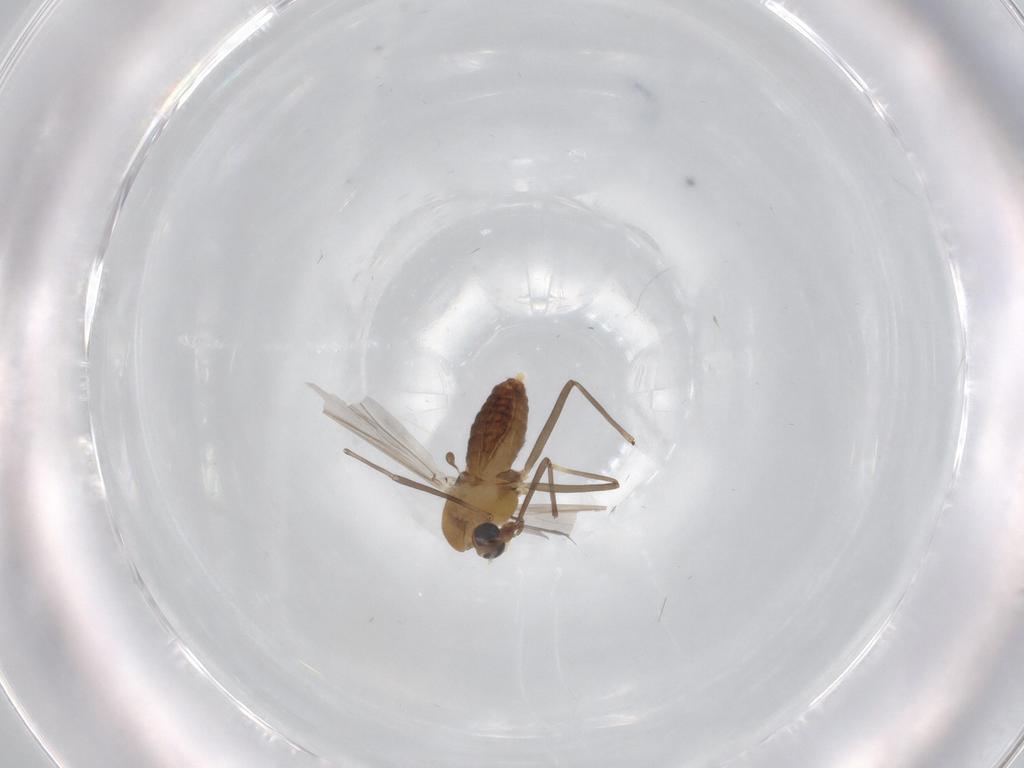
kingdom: Animalia
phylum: Arthropoda
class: Insecta
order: Diptera
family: Chironomidae
